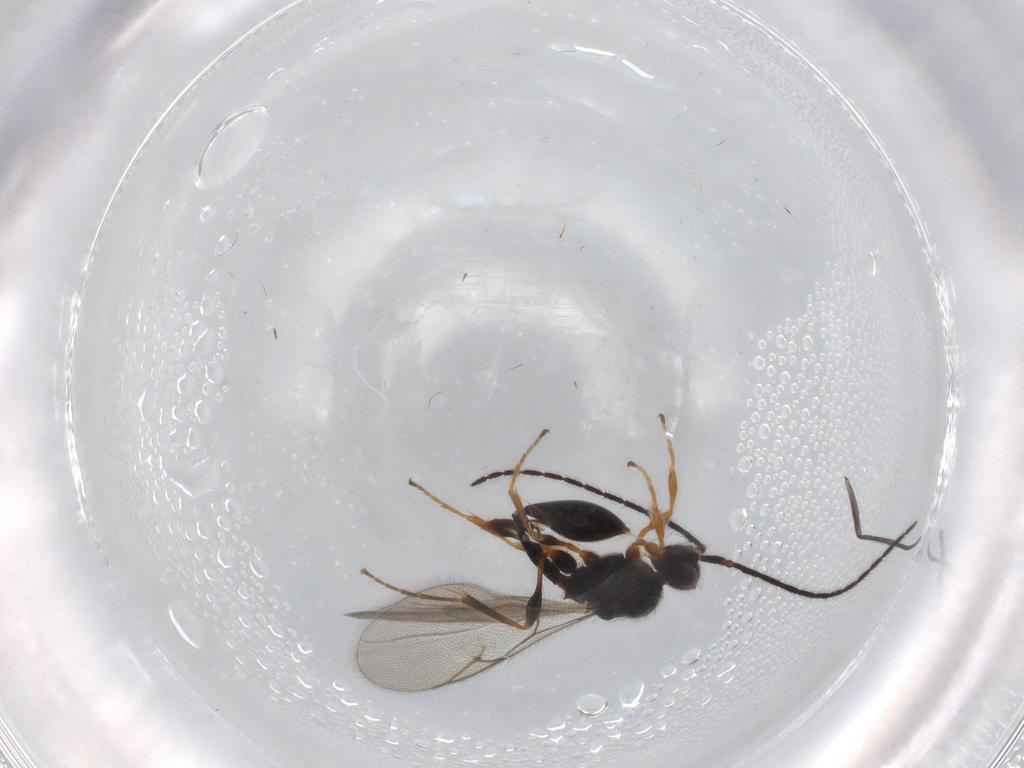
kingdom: Animalia
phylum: Arthropoda
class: Insecta
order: Hymenoptera
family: Diapriidae
